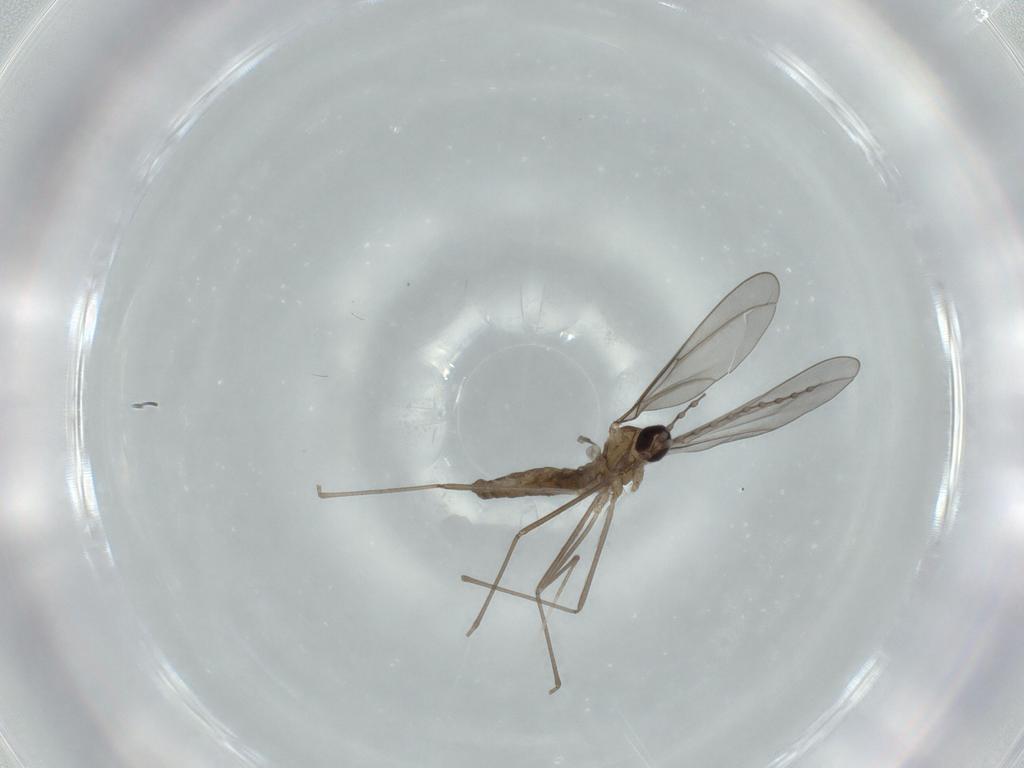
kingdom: Animalia
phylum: Arthropoda
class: Insecta
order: Diptera
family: Cecidomyiidae
